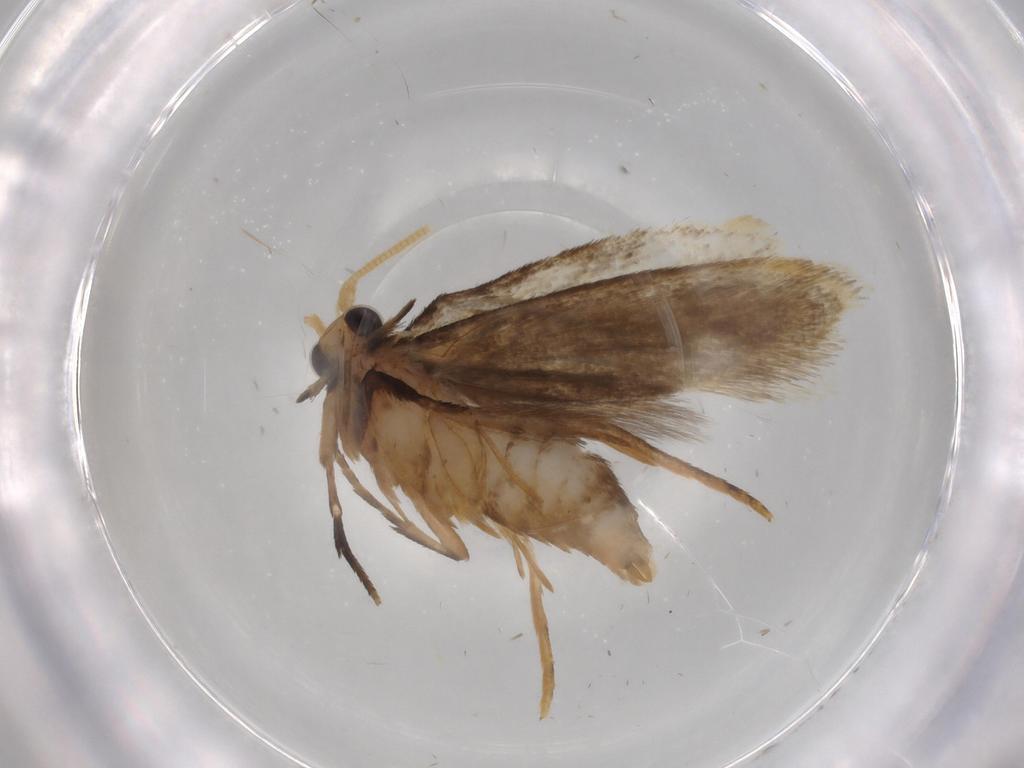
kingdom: Animalia
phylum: Arthropoda
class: Insecta
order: Lepidoptera
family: Tineidae
